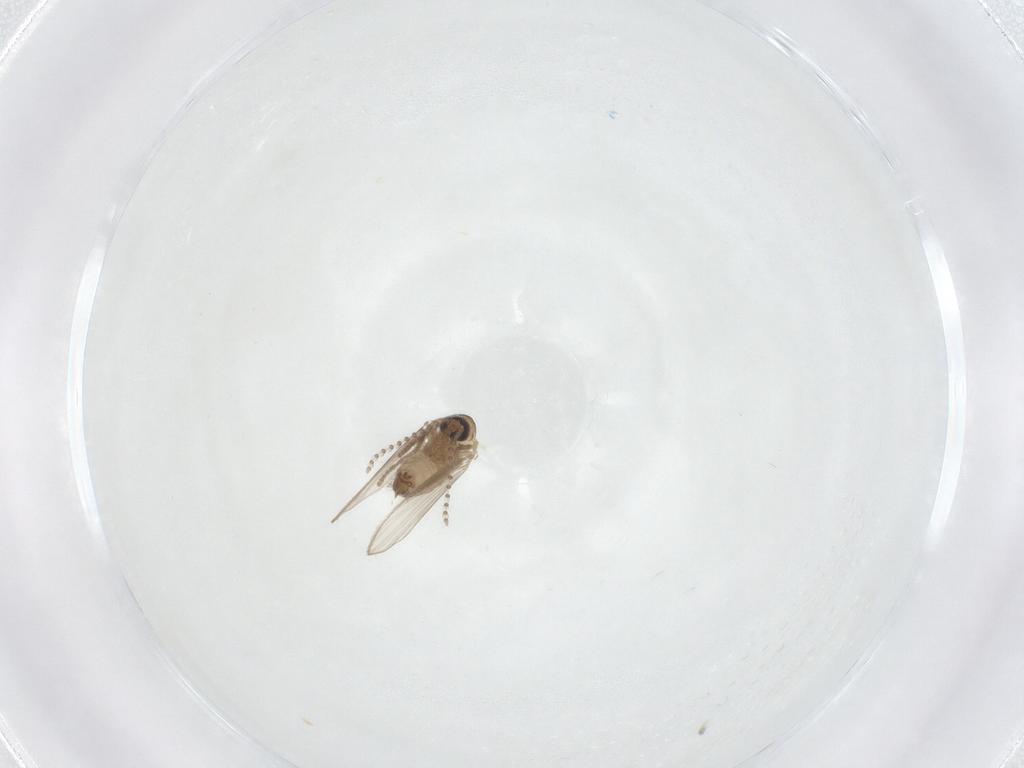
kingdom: Animalia
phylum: Arthropoda
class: Insecta
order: Diptera
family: Psychodidae
